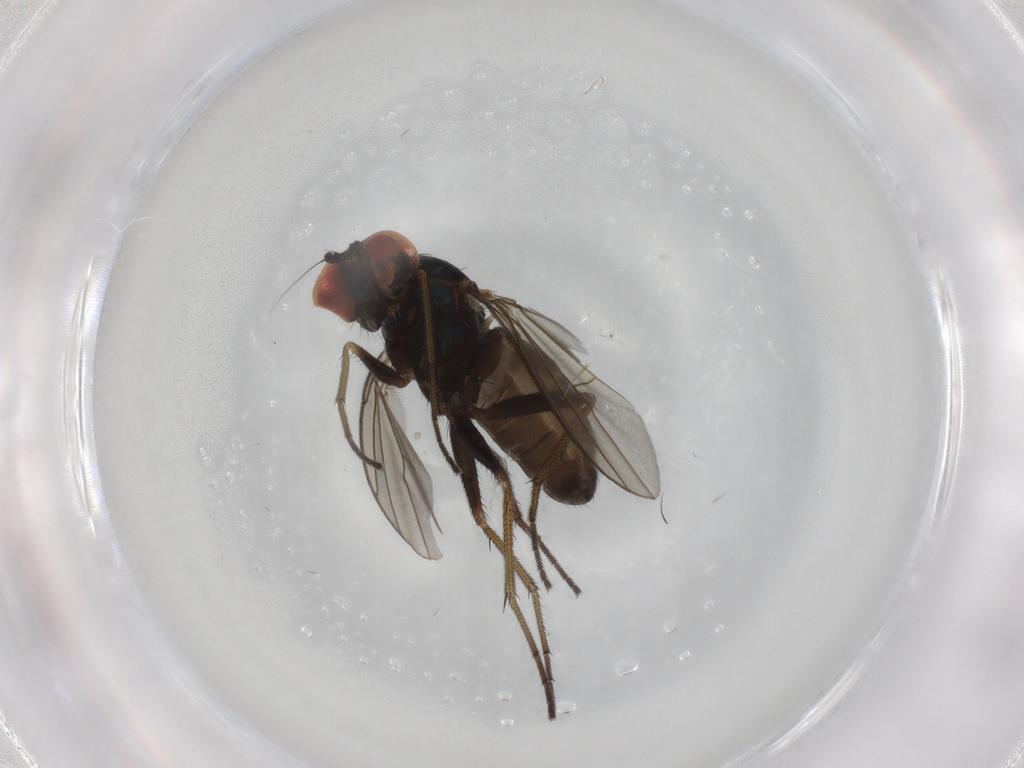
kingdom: Animalia
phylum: Arthropoda
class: Insecta
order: Diptera
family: Dolichopodidae
